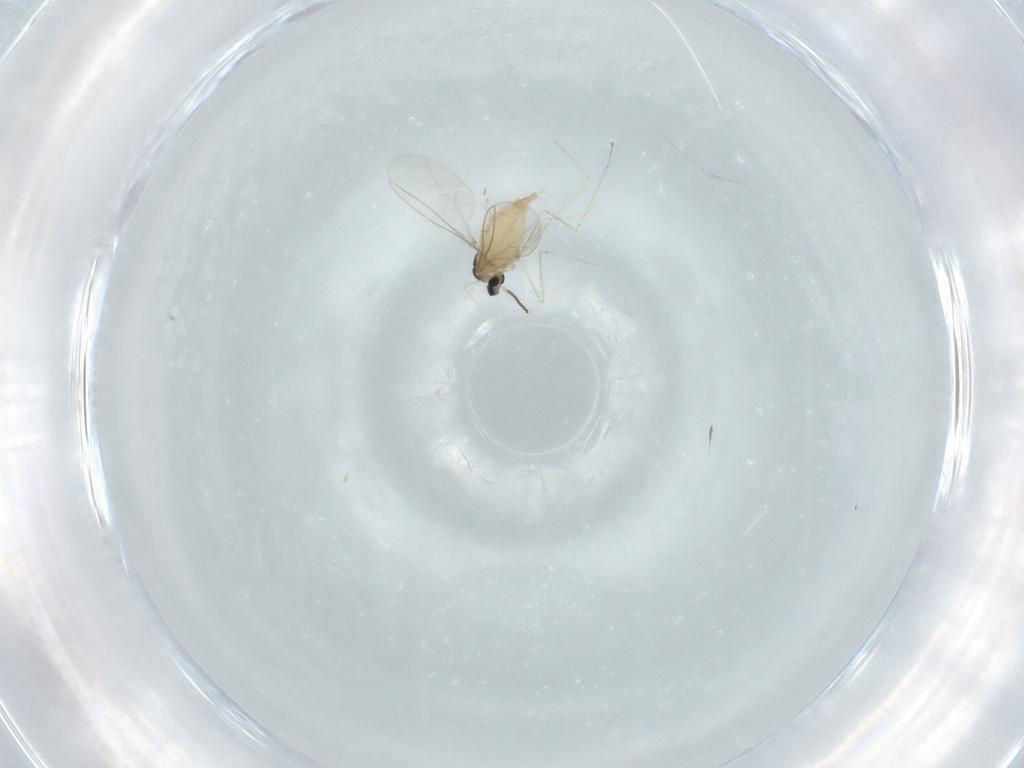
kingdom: Animalia
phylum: Arthropoda
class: Insecta
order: Diptera
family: Cecidomyiidae
